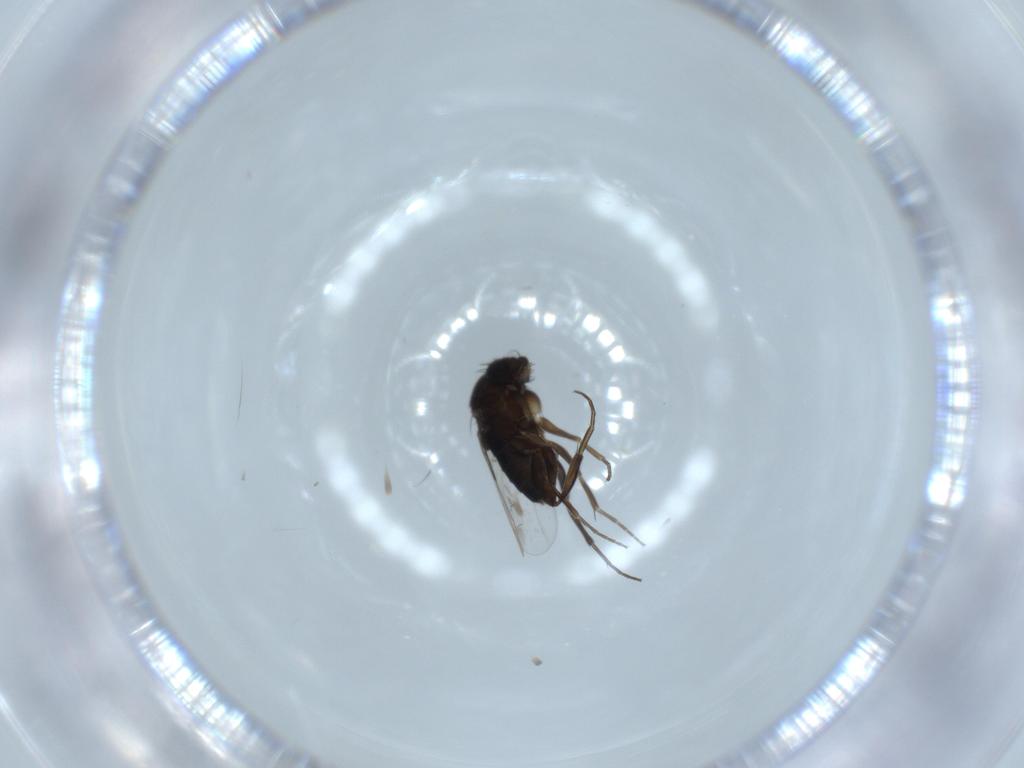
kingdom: Animalia
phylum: Arthropoda
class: Insecta
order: Diptera
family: Phoridae
